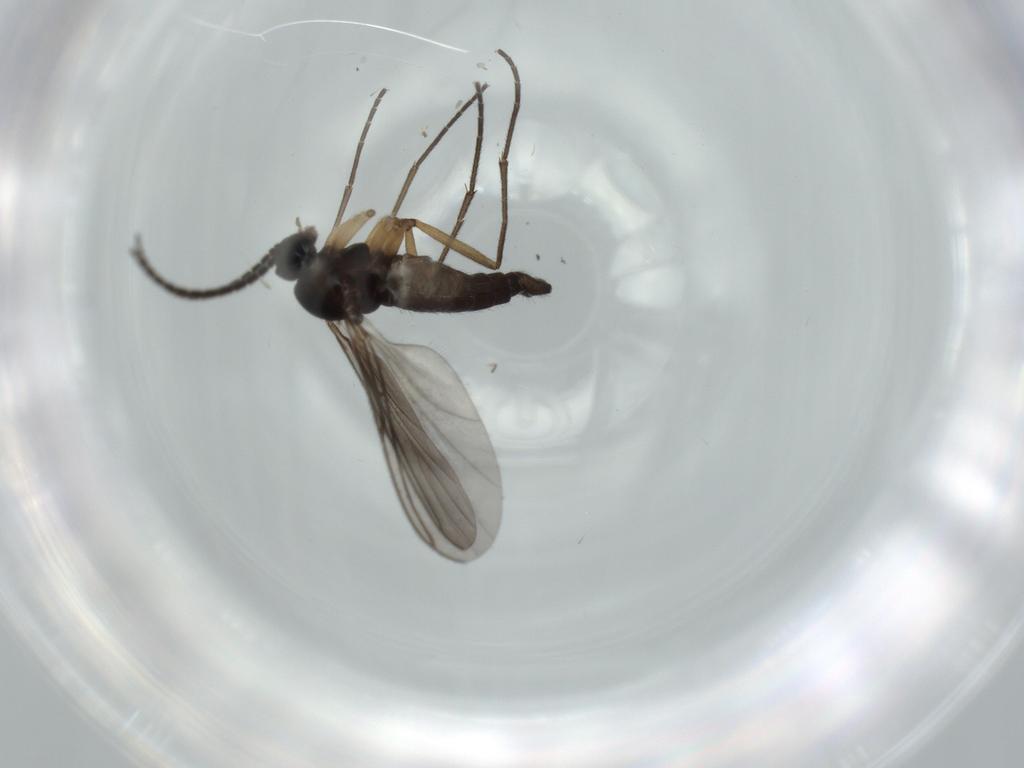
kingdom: Animalia
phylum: Arthropoda
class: Insecta
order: Diptera
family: Sciaridae
